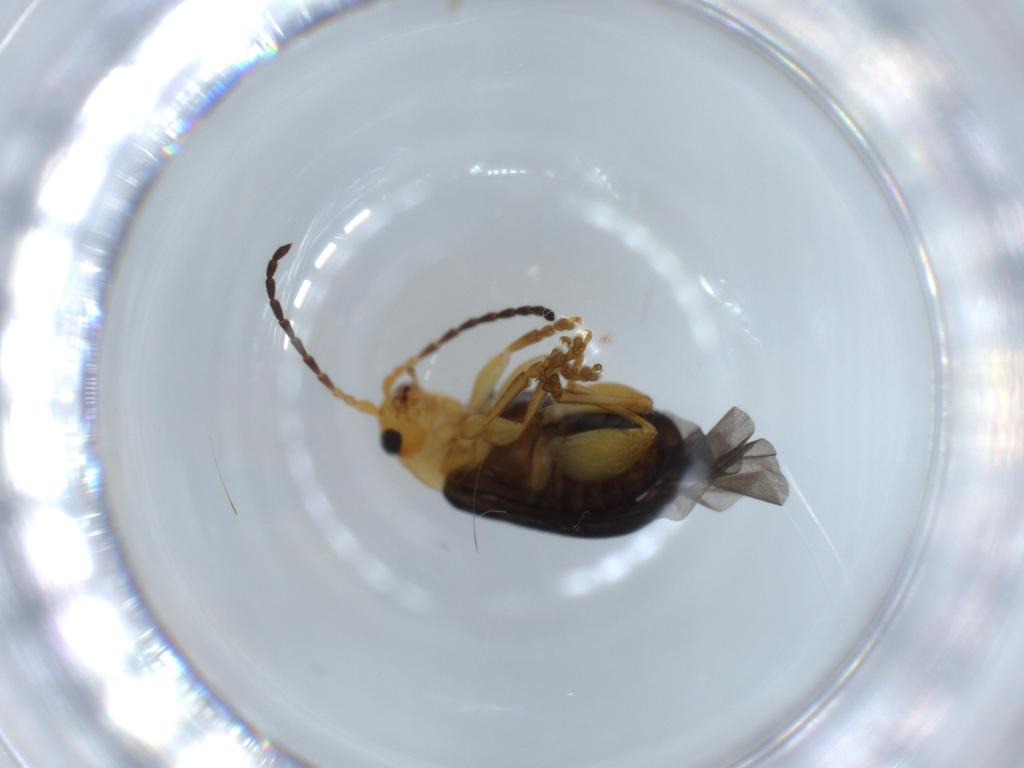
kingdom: Animalia
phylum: Arthropoda
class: Insecta
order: Coleoptera
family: Chrysomelidae
